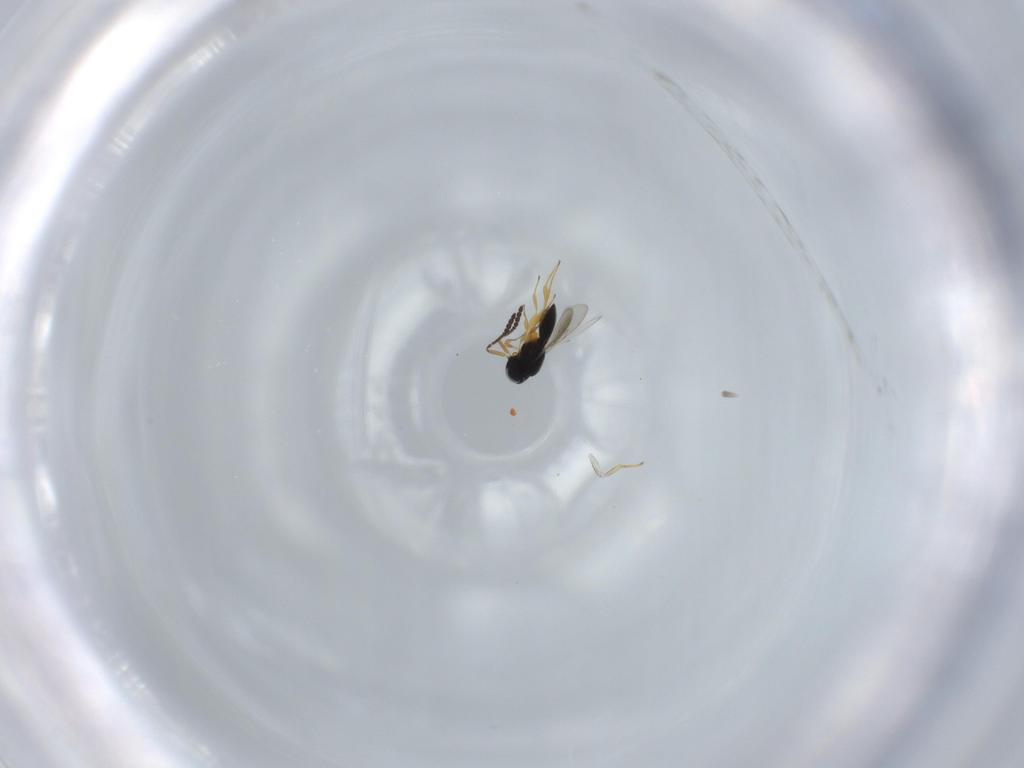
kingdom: Animalia
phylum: Arthropoda
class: Insecta
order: Hymenoptera
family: Scelionidae
